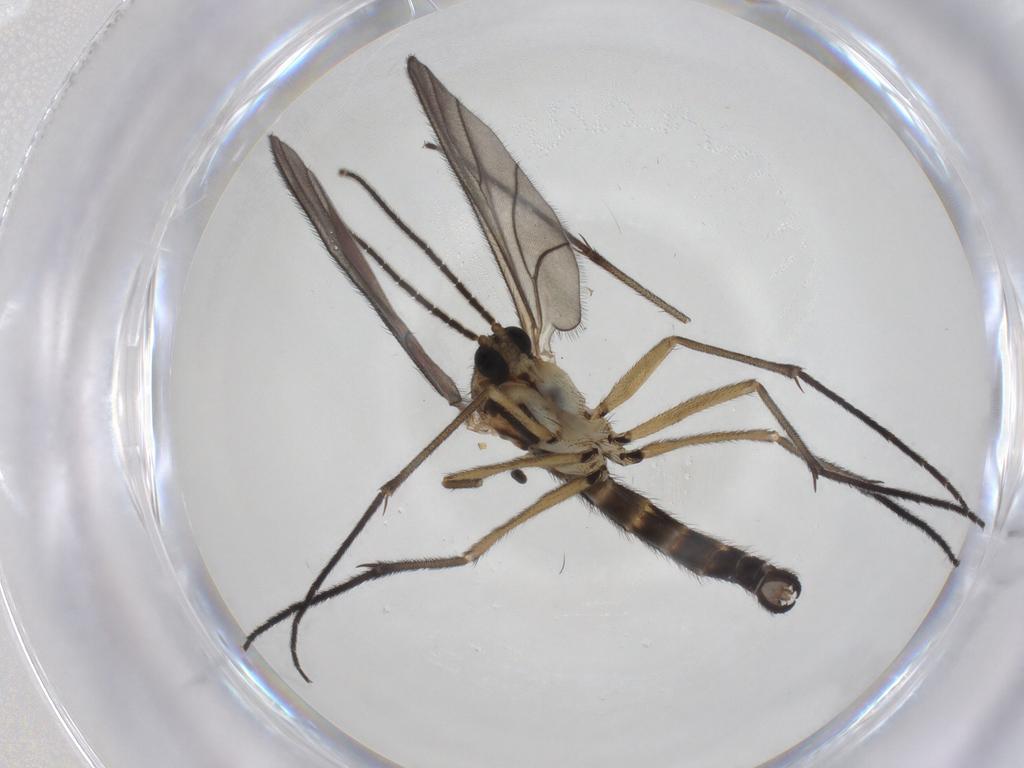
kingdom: Animalia
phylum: Arthropoda
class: Insecta
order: Diptera
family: Sciaridae
